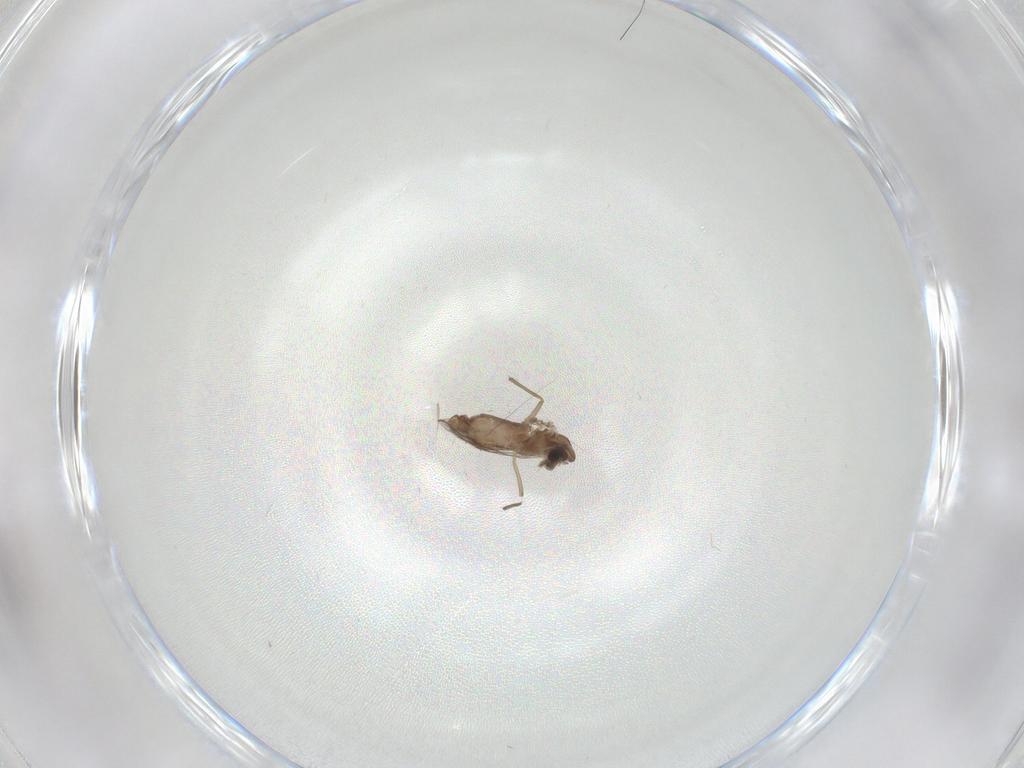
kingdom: Animalia
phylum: Arthropoda
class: Insecta
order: Diptera
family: Chironomidae
